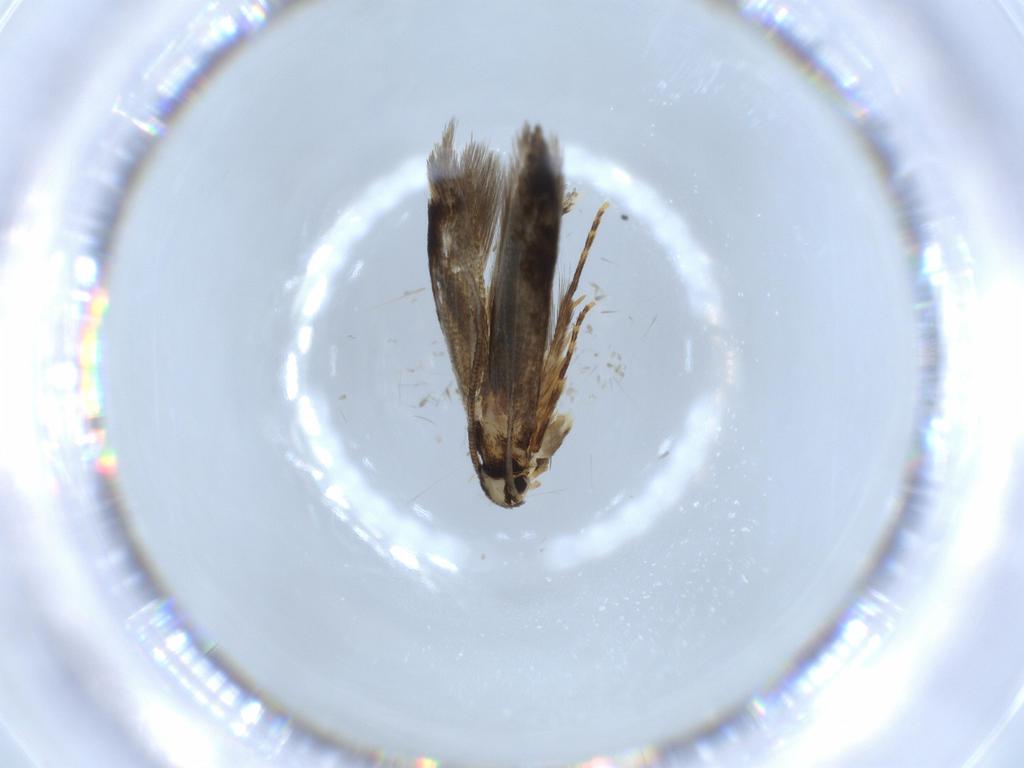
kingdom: Animalia
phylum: Arthropoda
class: Insecta
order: Lepidoptera
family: Tineidae
